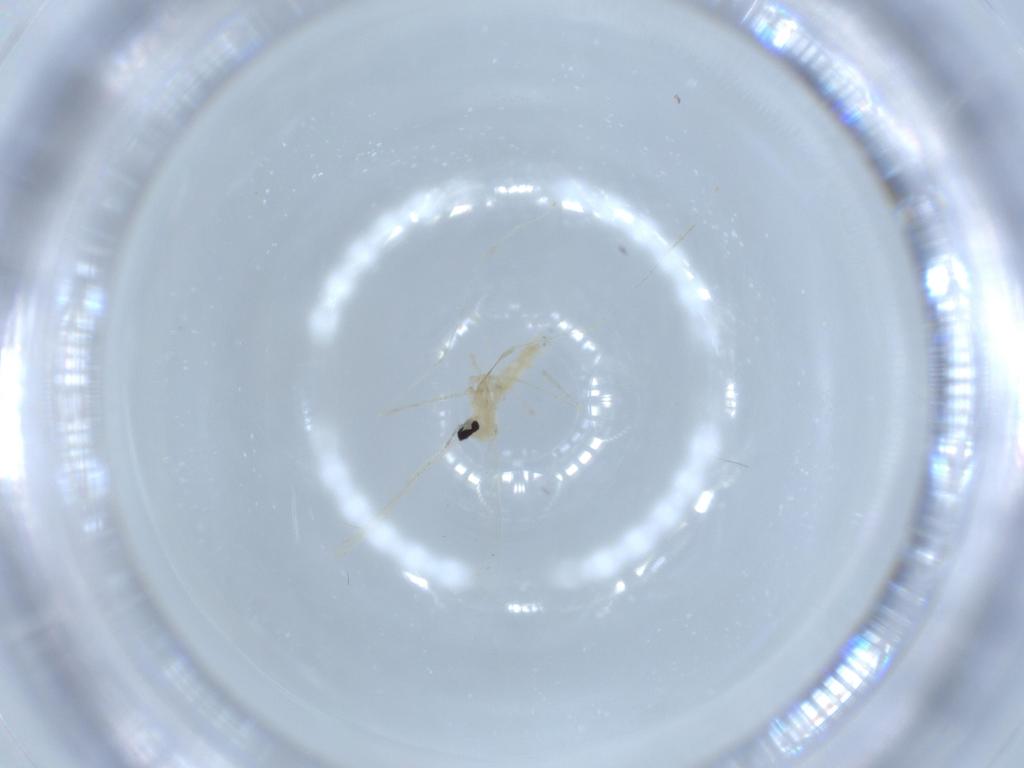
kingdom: Animalia
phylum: Arthropoda
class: Insecta
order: Diptera
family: Cecidomyiidae
